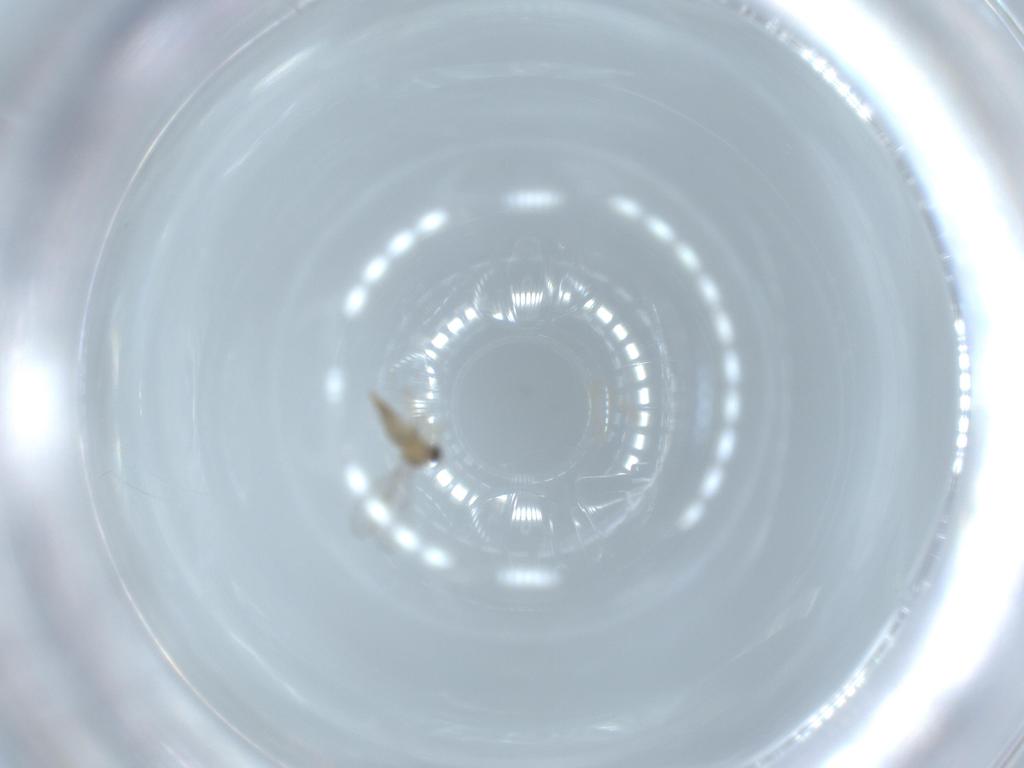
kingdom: Animalia
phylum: Arthropoda
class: Insecta
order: Diptera
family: Cecidomyiidae
